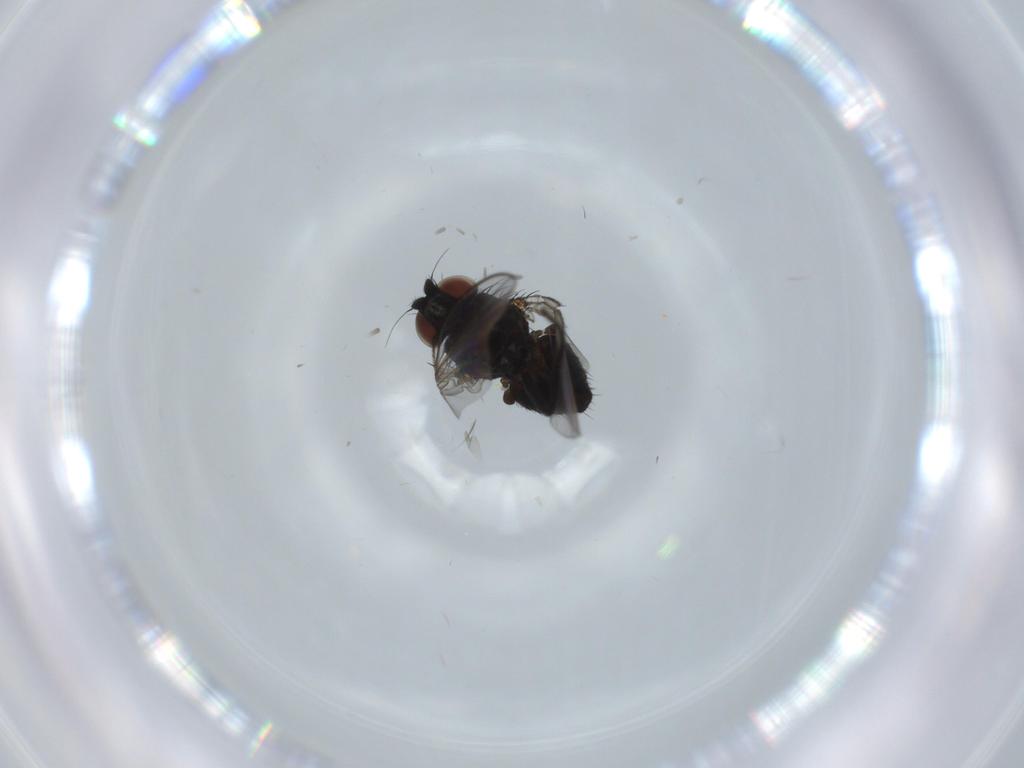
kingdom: Animalia
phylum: Arthropoda
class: Insecta
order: Diptera
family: Milichiidae
